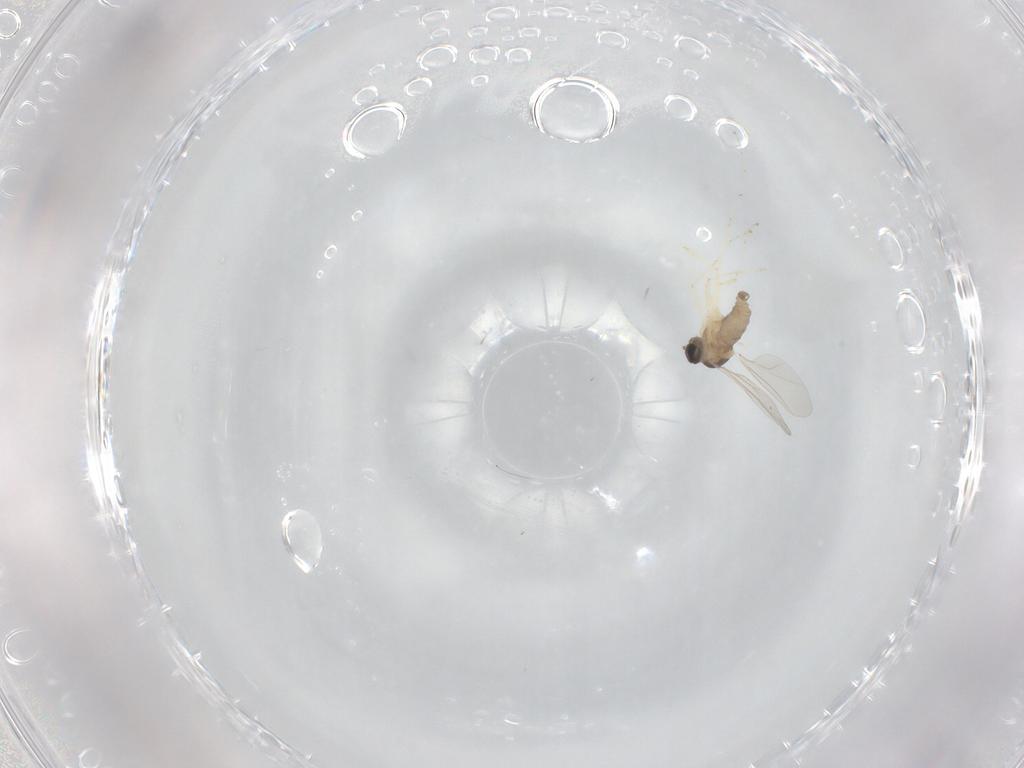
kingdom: Animalia
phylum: Arthropoda
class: Insecta
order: Diptera
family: Cecidomyiidae
